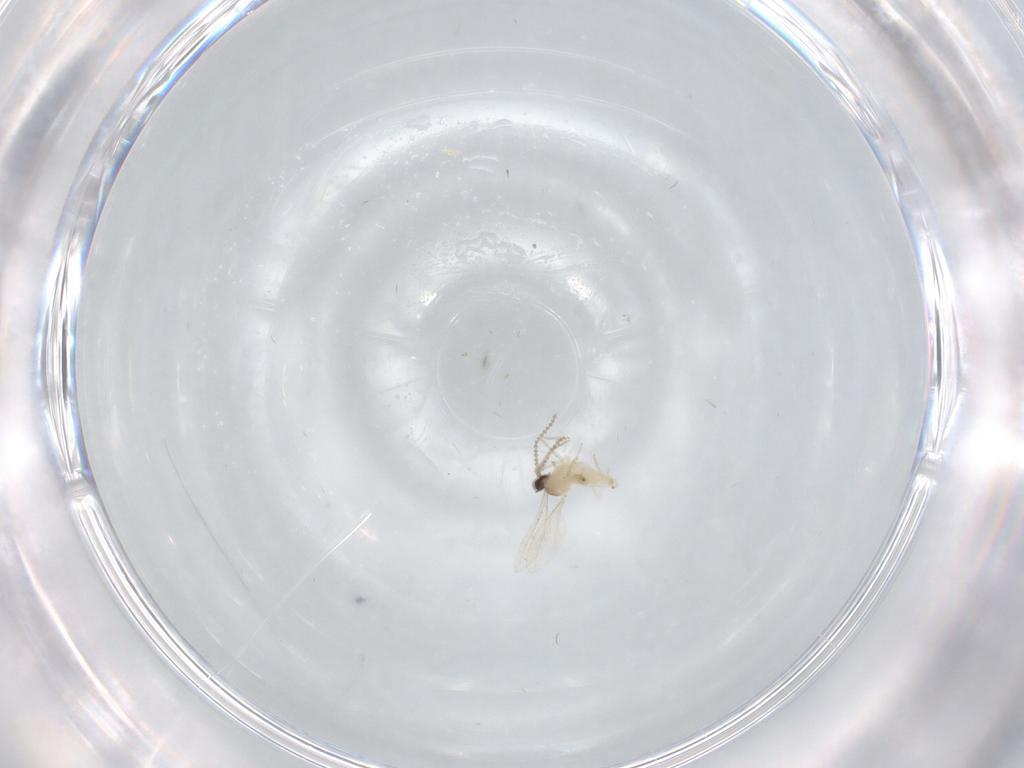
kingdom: Animalia
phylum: Arthropoda
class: Insecta
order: Diptera
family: Cecidomyiidae
